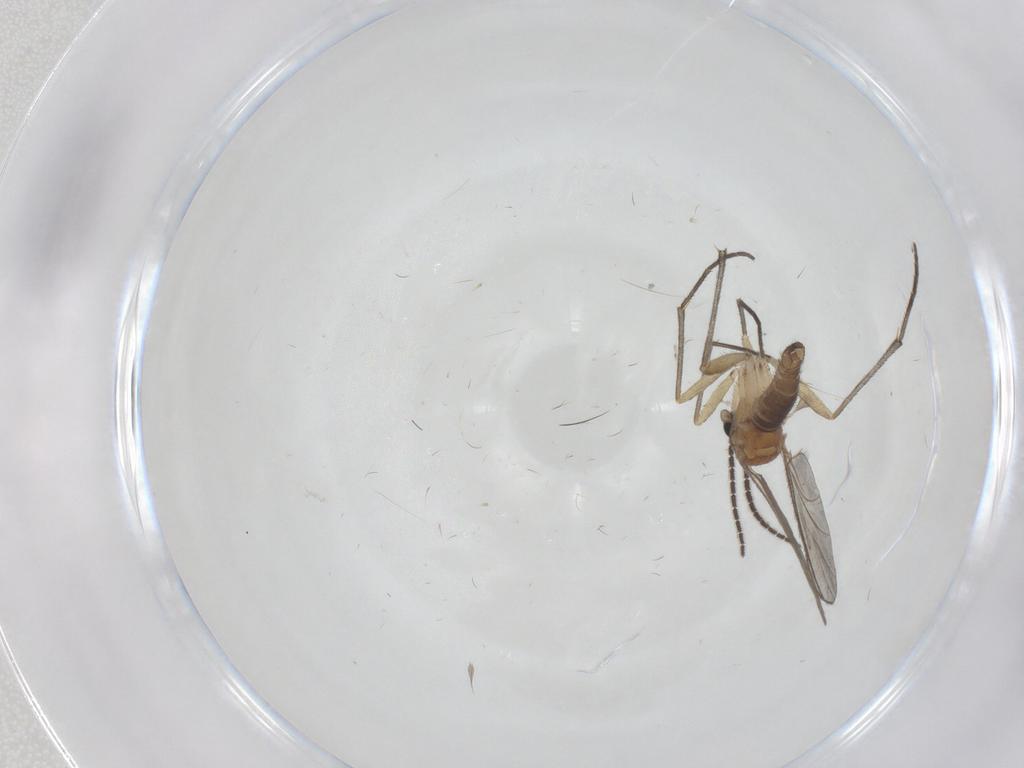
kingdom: Animalia
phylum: Arthropoda
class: Insecta
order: Diptera
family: Sciaridae
